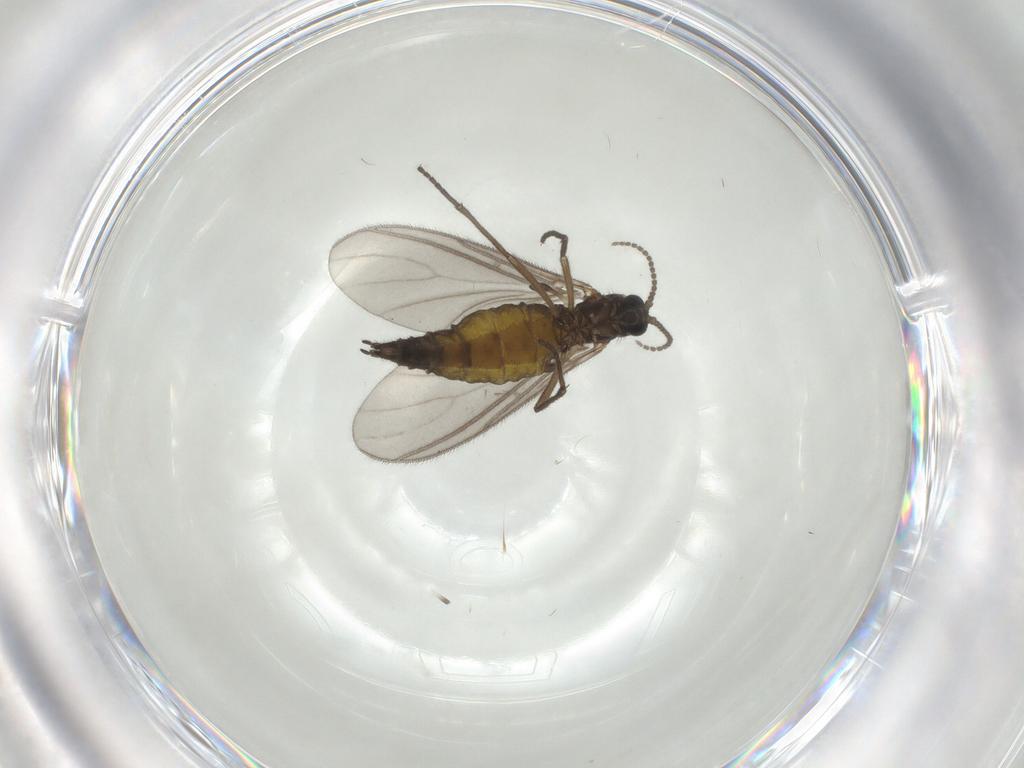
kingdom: Animalia
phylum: Arthropoda
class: Insecta
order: Diptera
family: Sciaridae
